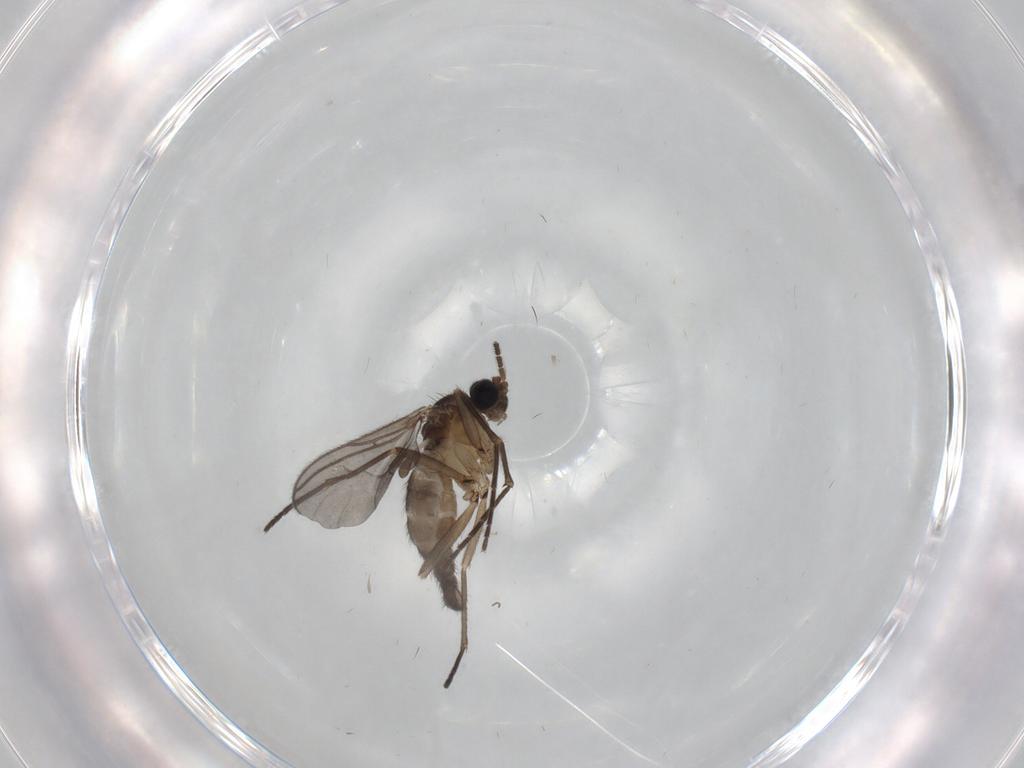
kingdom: Animalia
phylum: Arthropoda
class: Insecta
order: Diptera
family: Sciaridae
